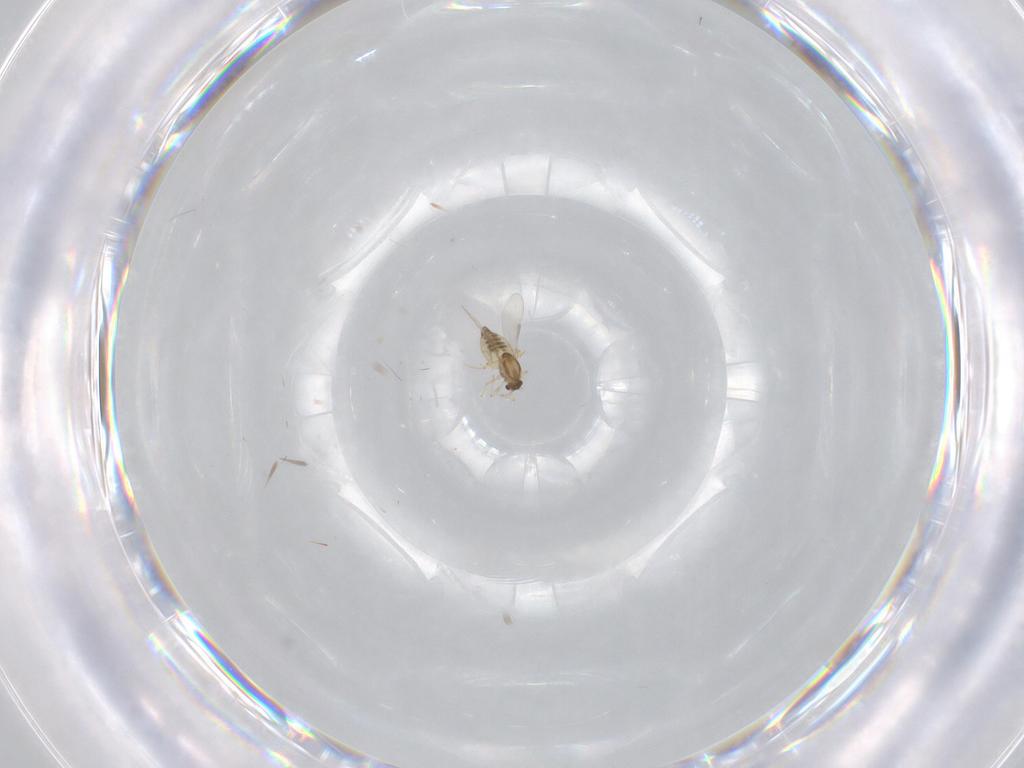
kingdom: Animalia
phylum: Arthropoda
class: Insecta
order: Diptera
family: Chironomidae
